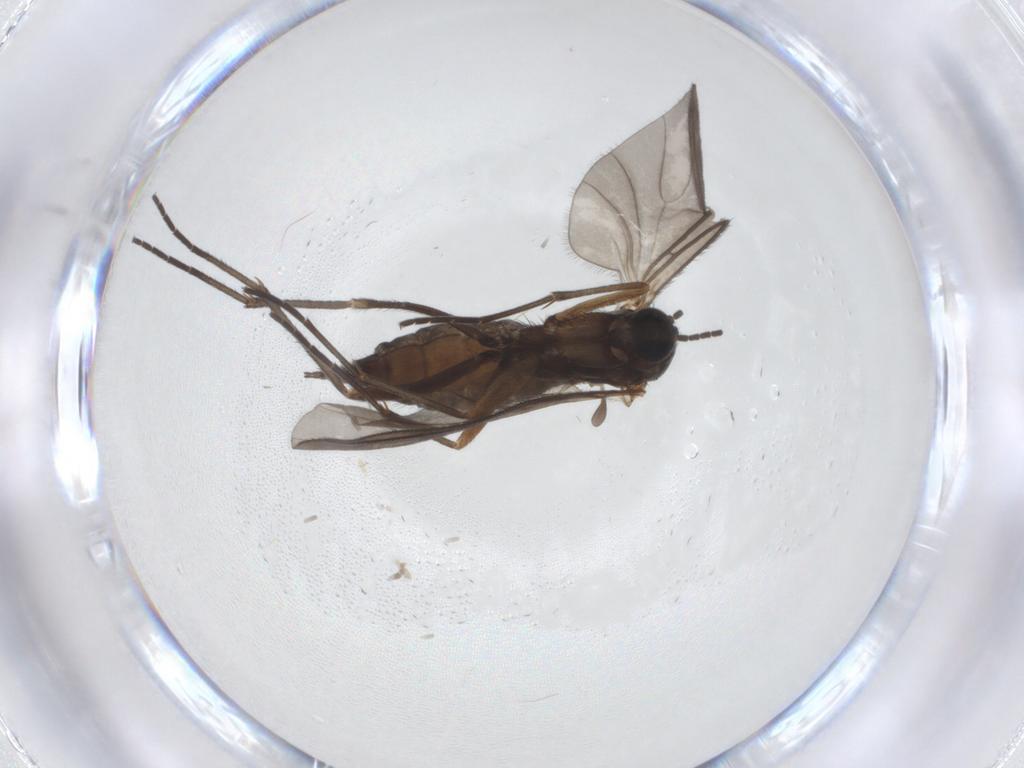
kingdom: Animalia
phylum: Arthropoda
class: Insecta
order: Diptera
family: Sciaridae
